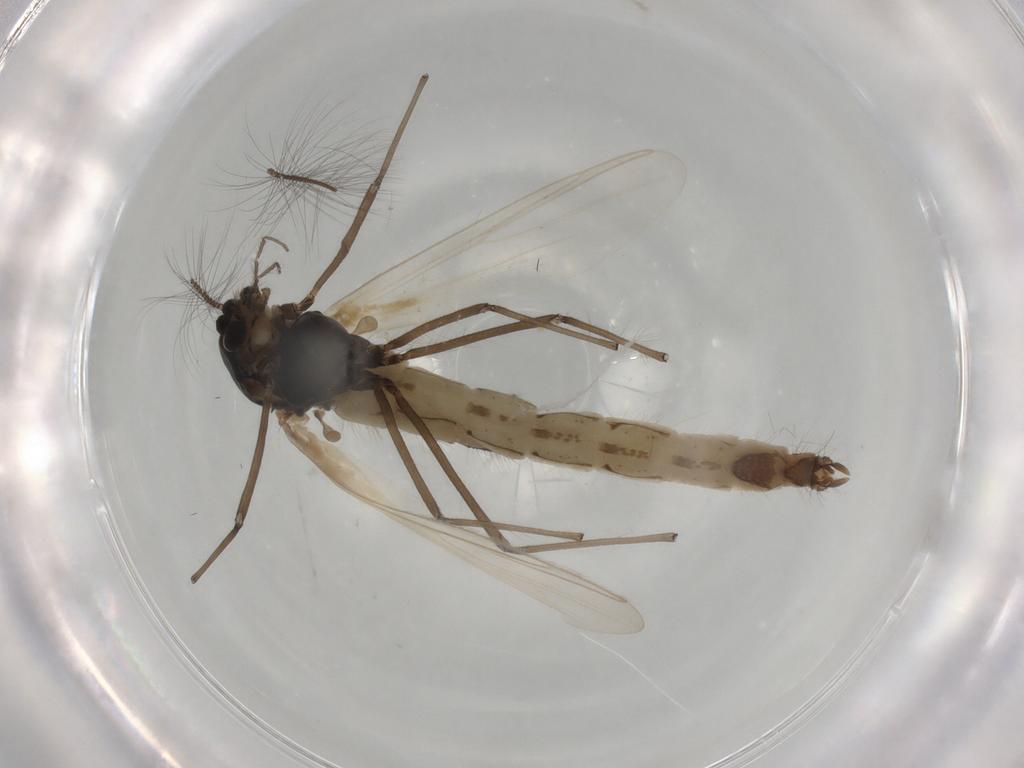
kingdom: Animalia
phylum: Arthropoda
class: Insecta
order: Diptera
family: Chironomidae
